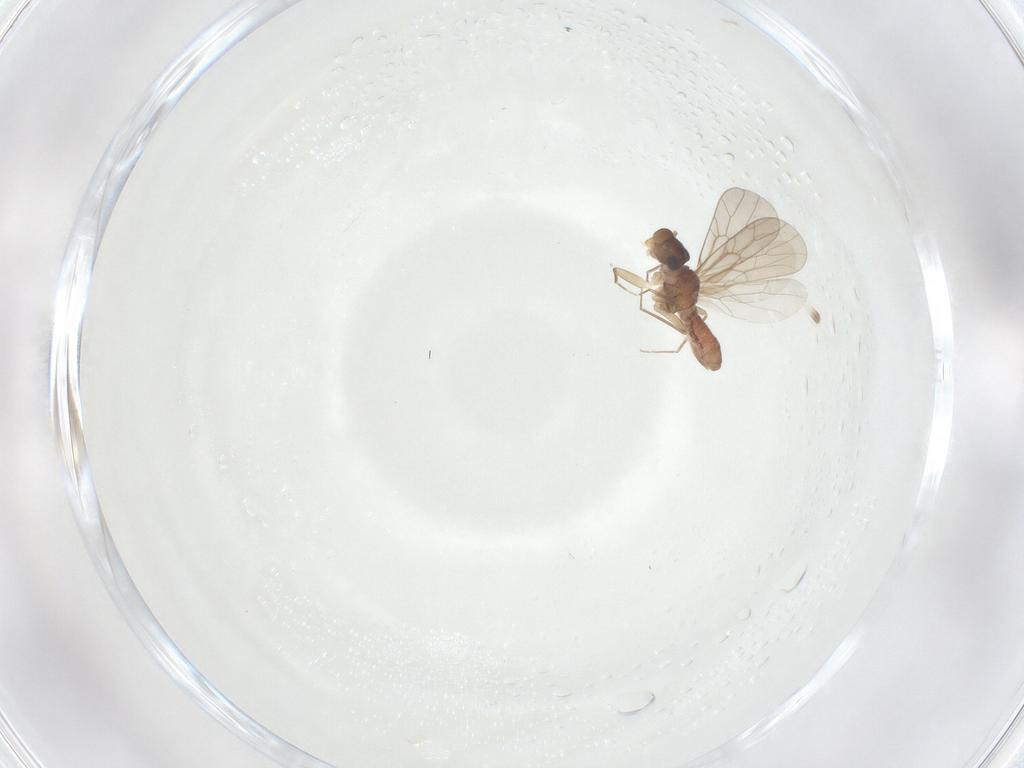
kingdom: Animalia
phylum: Arthropoda
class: Insecta
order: Psocodea
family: Lepidopsocidae
